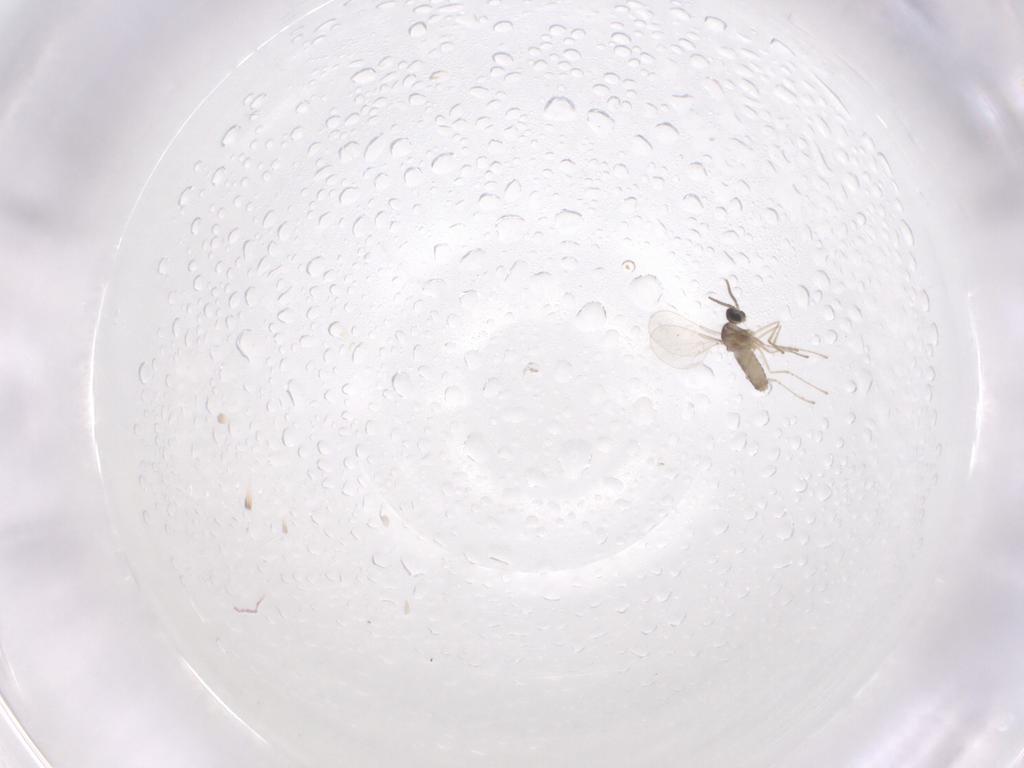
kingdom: Animalia
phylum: Arthropoda
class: Insecta
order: Diptera
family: Cecidomyiidae
